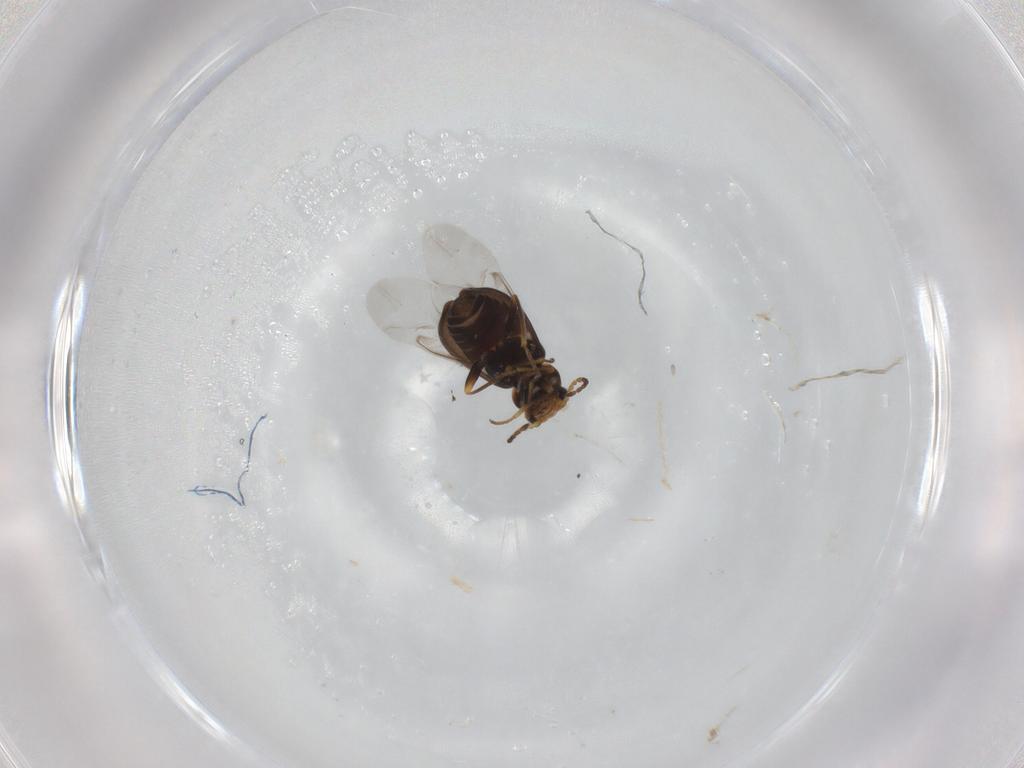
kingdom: Animalia
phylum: Arthropoda
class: Insecta
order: Coleoptera
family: Melyridae
